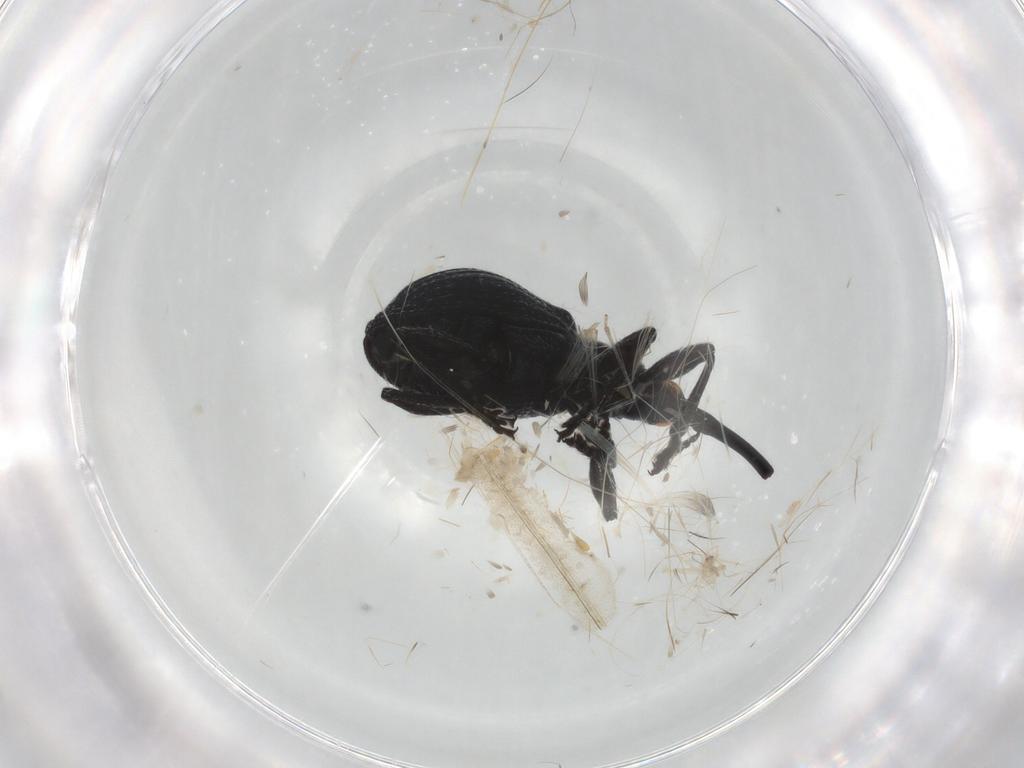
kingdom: Animalia
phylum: Arthropoda
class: Insecta
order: Coleoptera
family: Brentidae
